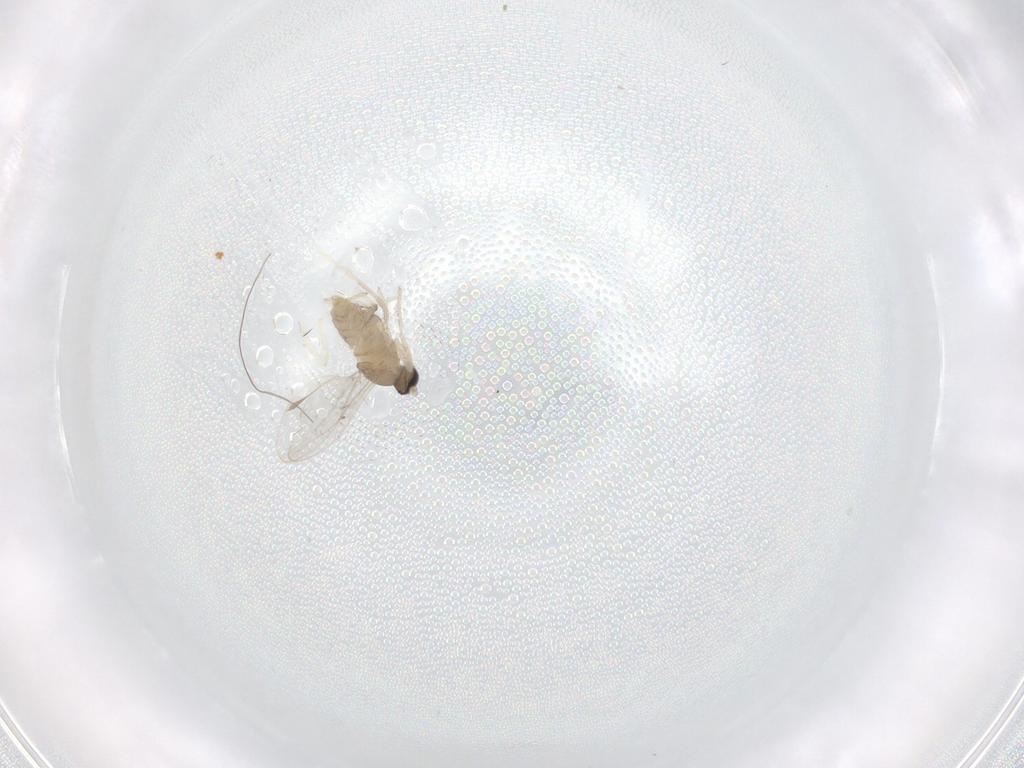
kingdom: Animalia
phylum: Arthropoda
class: Insecta
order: Diptera
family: Cecidomyiidae
